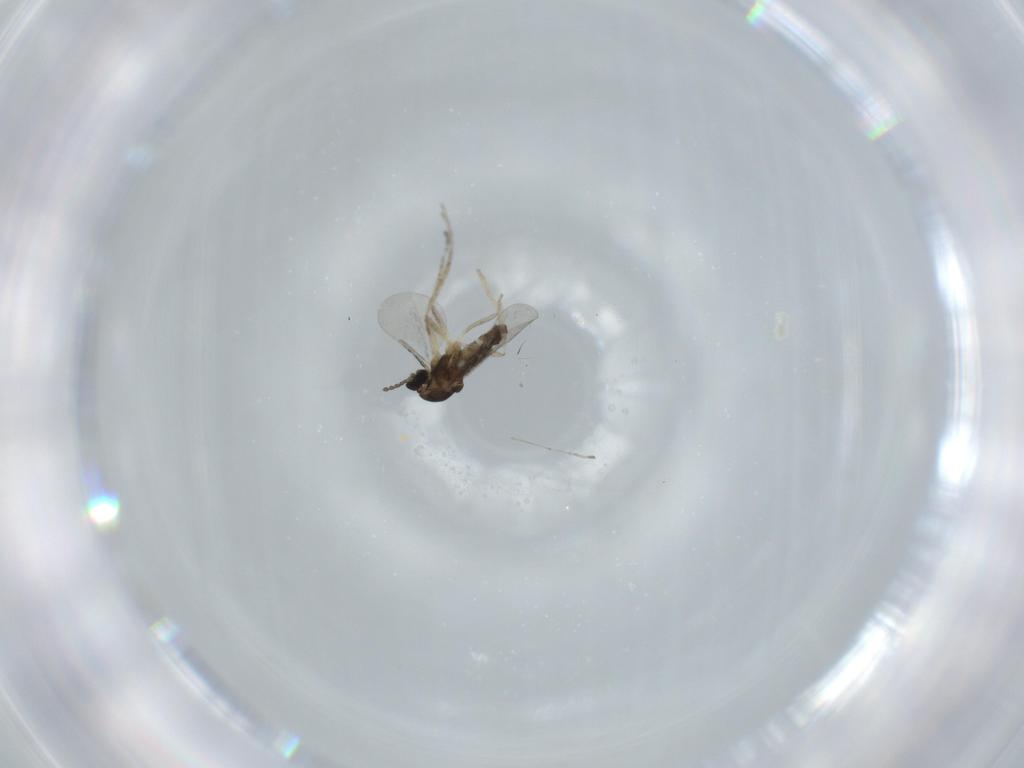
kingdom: Animalia
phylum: Arthropoda
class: Insecta
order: Diptera
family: Cecidomyiidae
